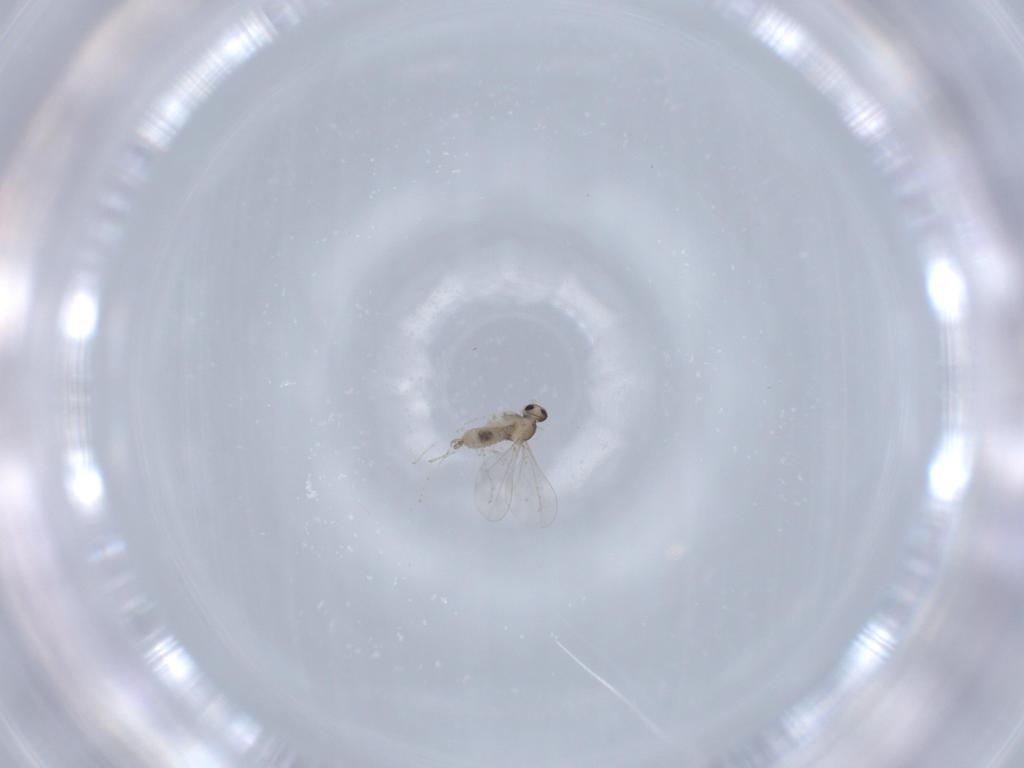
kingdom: Animalia
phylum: Arthropoda
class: Insecta
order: Diptera
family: Cecidomyiidae
